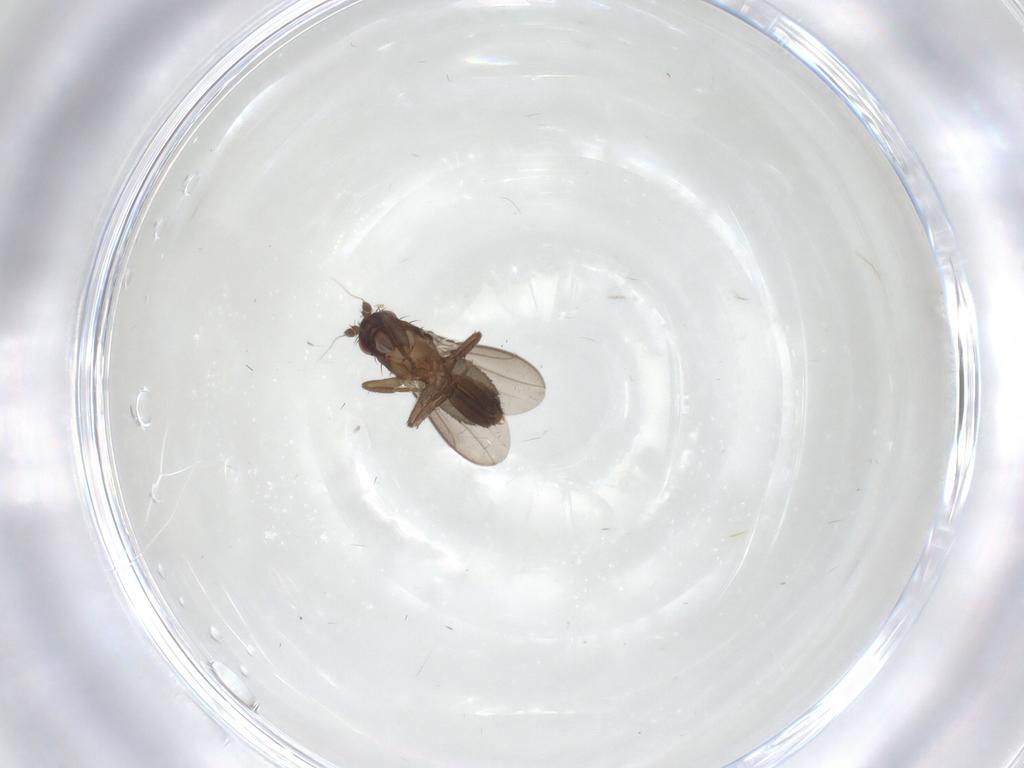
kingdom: Animalia
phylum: Arthropoda
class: Insecta
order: Diptera
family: Sphaeroceridae
